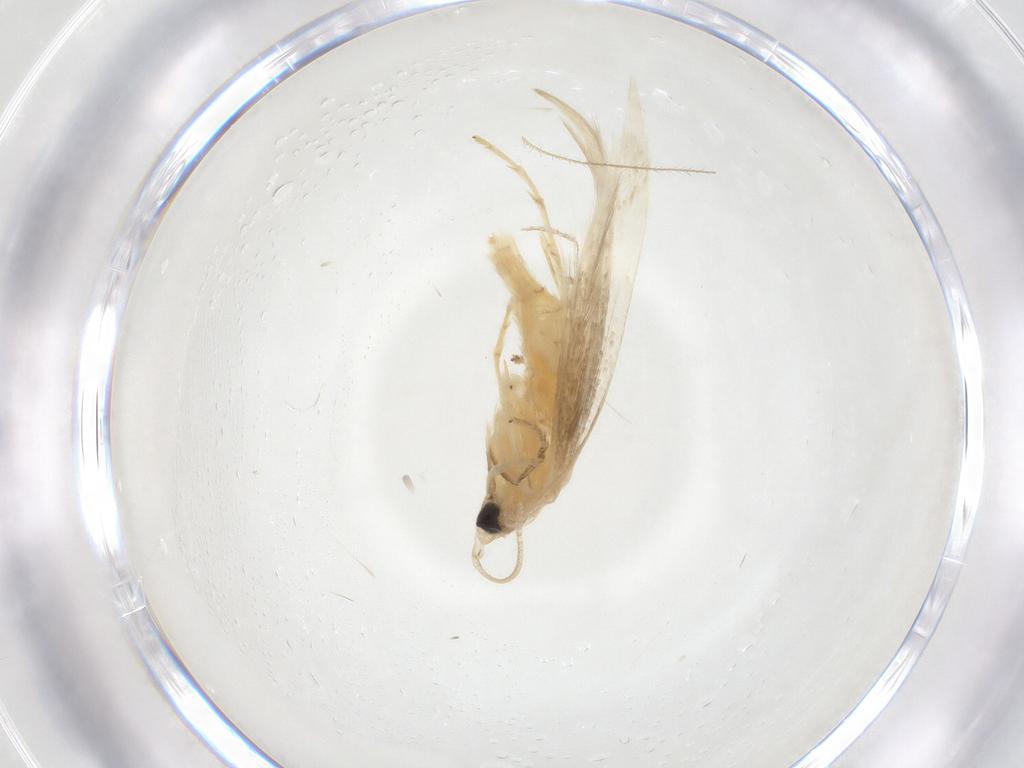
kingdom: Animalia
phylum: Arthropoda
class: Insecta
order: Lepidoptera
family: Lyonetiidae
